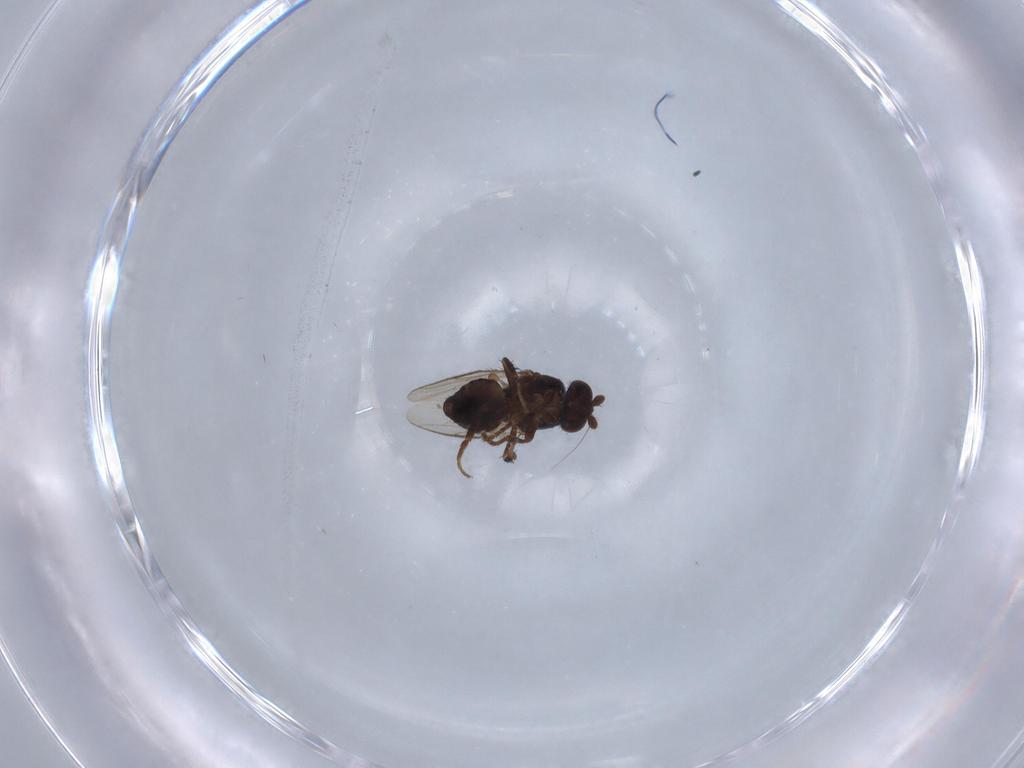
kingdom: Animalia
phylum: Arthropoda
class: Insecta
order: Diptera
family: Sphaeroceridae
